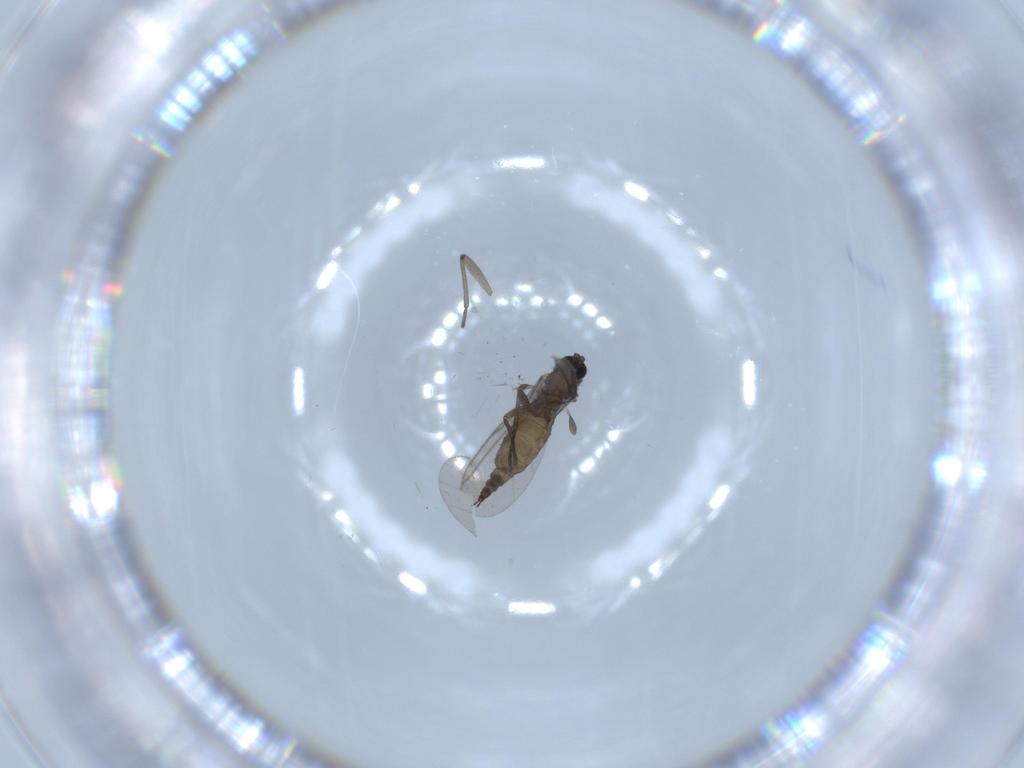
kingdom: Animalia
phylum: Arthropoda
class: Insecta
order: Diptera
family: Cecidomyiidae
